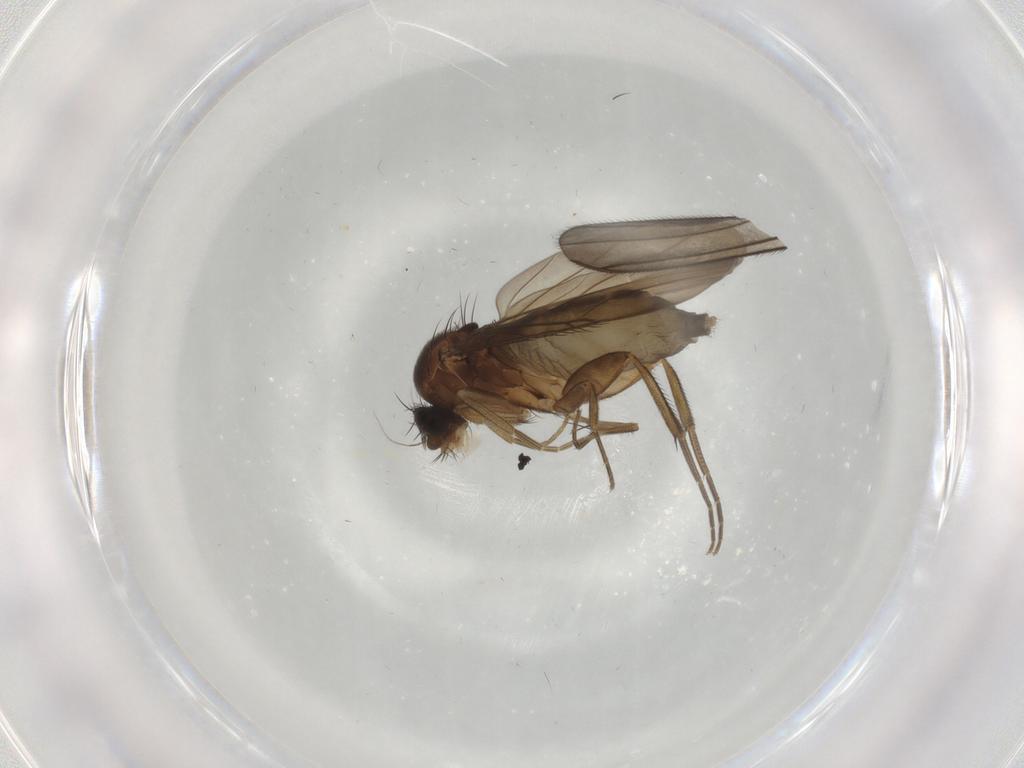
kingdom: Animalia
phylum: Arthropoda
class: Insecta
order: Diptera
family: Phoridae
